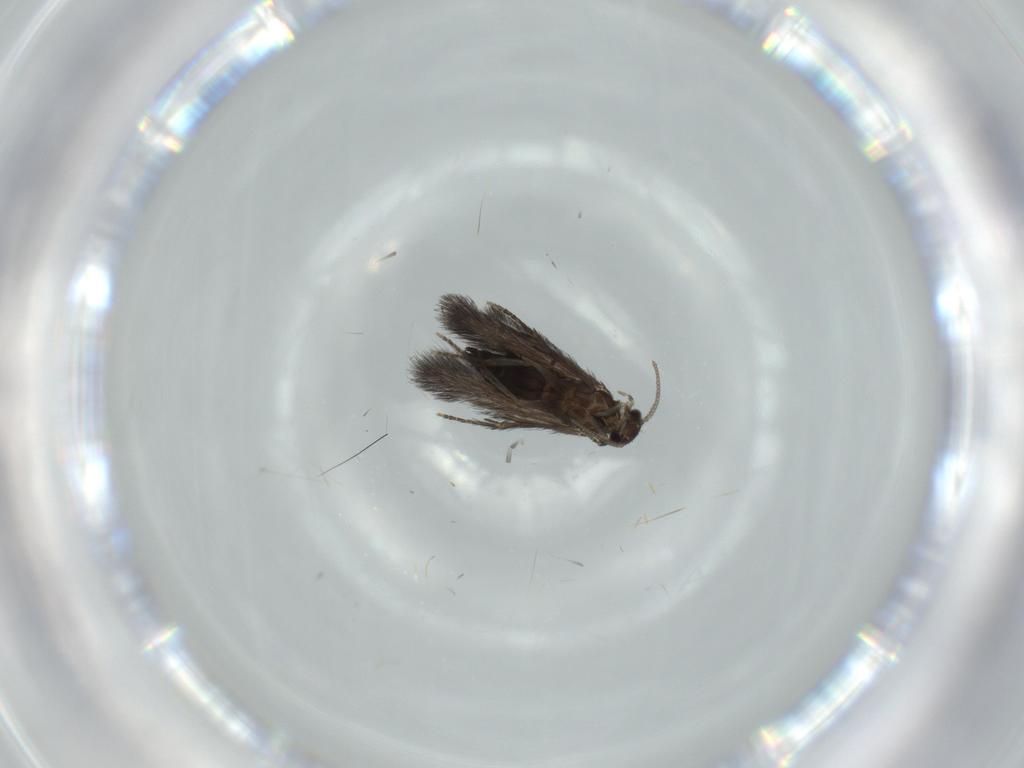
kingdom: Animalia
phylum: Arthropoda
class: Insecta
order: Trichoptera
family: Hydroptilidae
